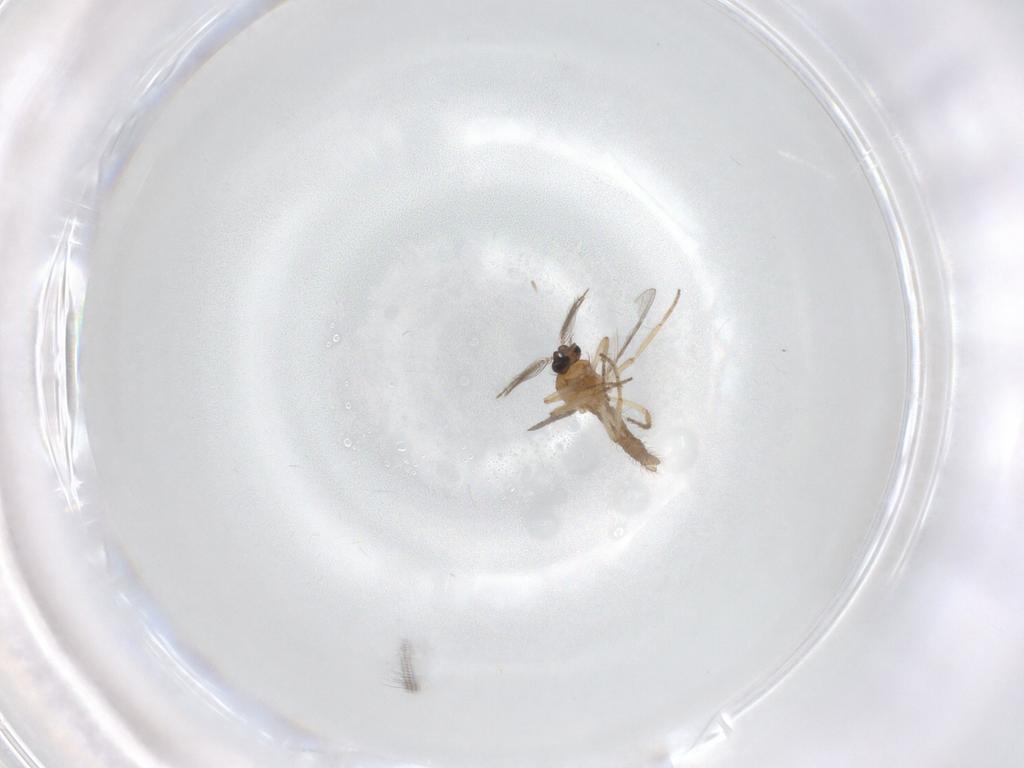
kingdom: Animalia
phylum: Arthropoda
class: Insecta
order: Diptera
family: Chironomidae
